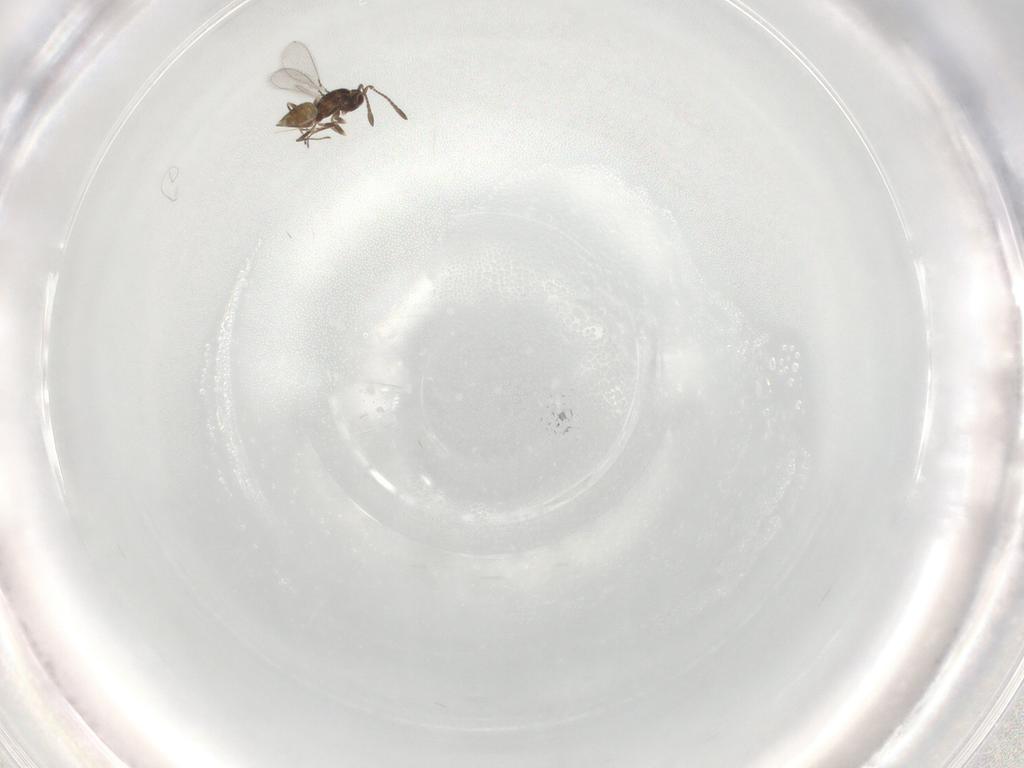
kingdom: Animalia
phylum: Arthropoda
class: Insecta
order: Hymenoptera
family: Mymaridae
